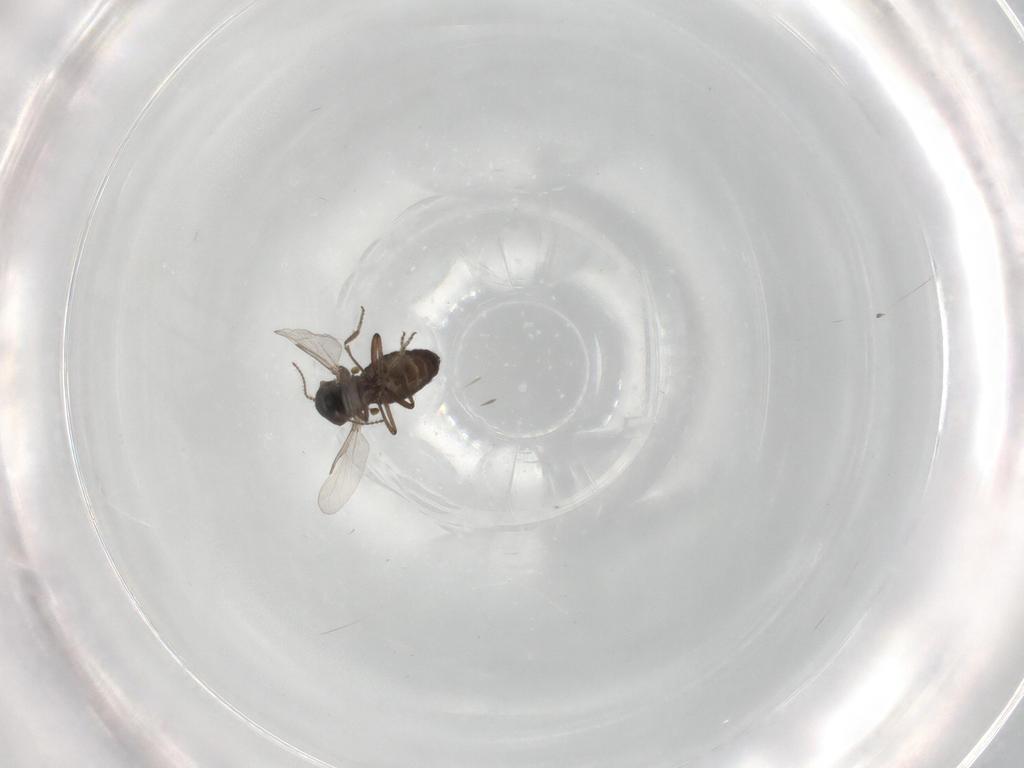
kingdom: Animalia
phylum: Arthropoda
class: Insecta
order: Diptera
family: Ceratopogonidae
